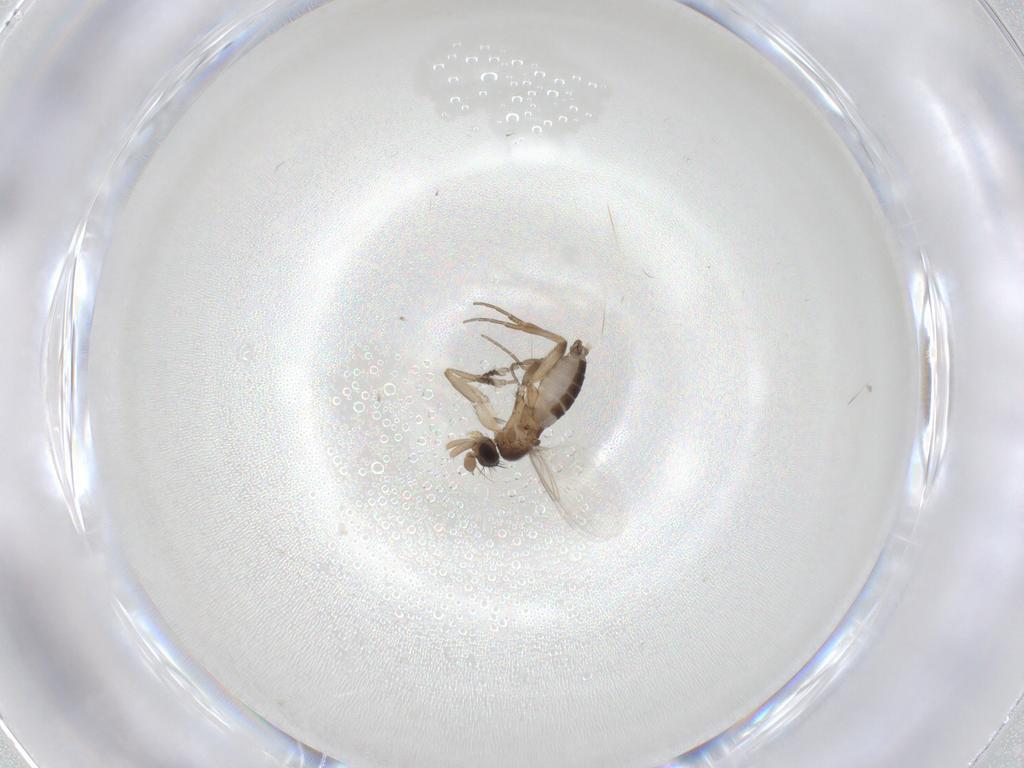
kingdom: Animalia
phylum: Arthropoda
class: Insecta
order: Diptera
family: Phoridae
